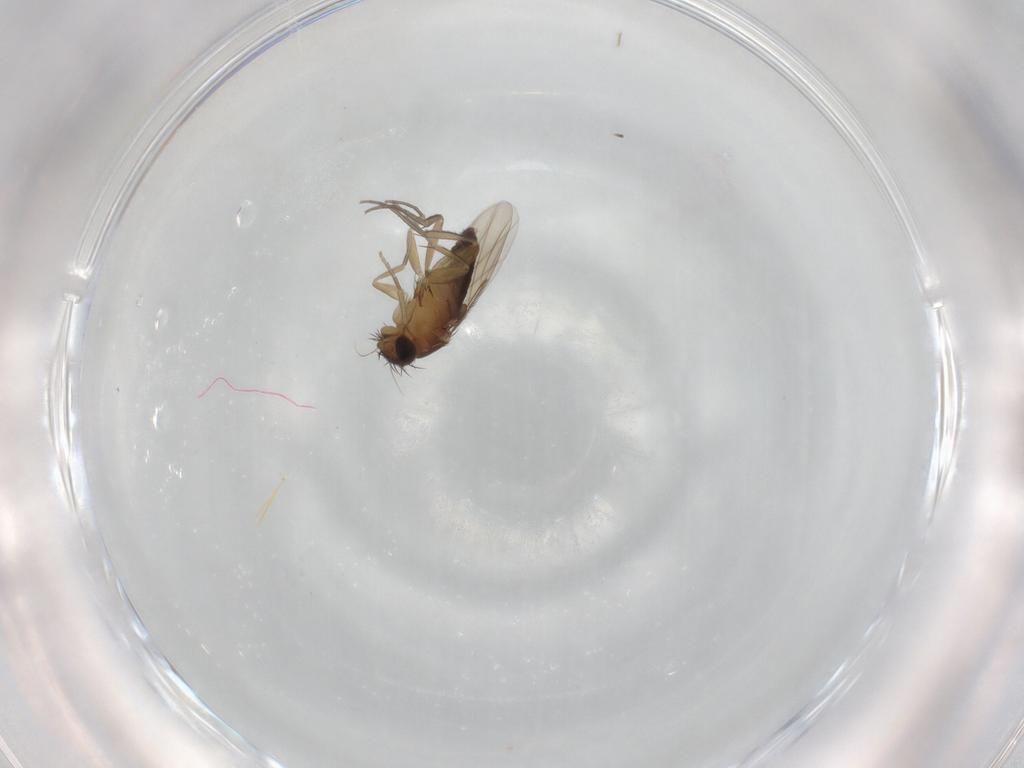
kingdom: Animalia
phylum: Arthropoda
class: Insecta
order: Diptera
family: Phoridae
